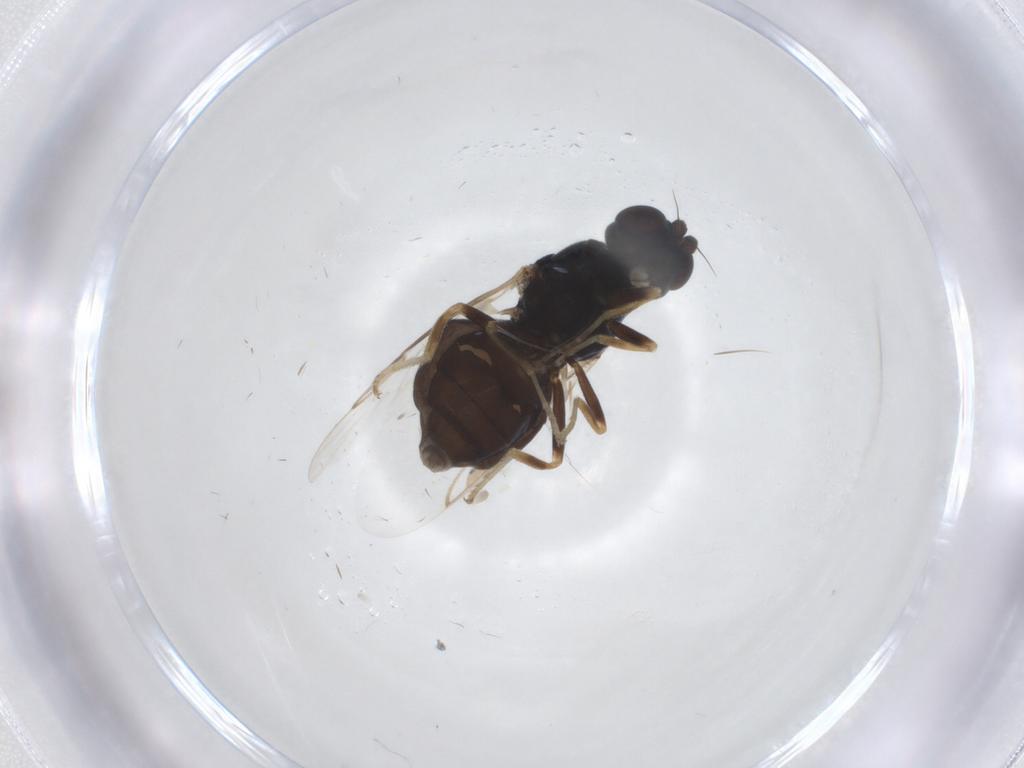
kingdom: Animalia
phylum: Arthropoda
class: Insecta
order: Diptera
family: Stratiomyidae
